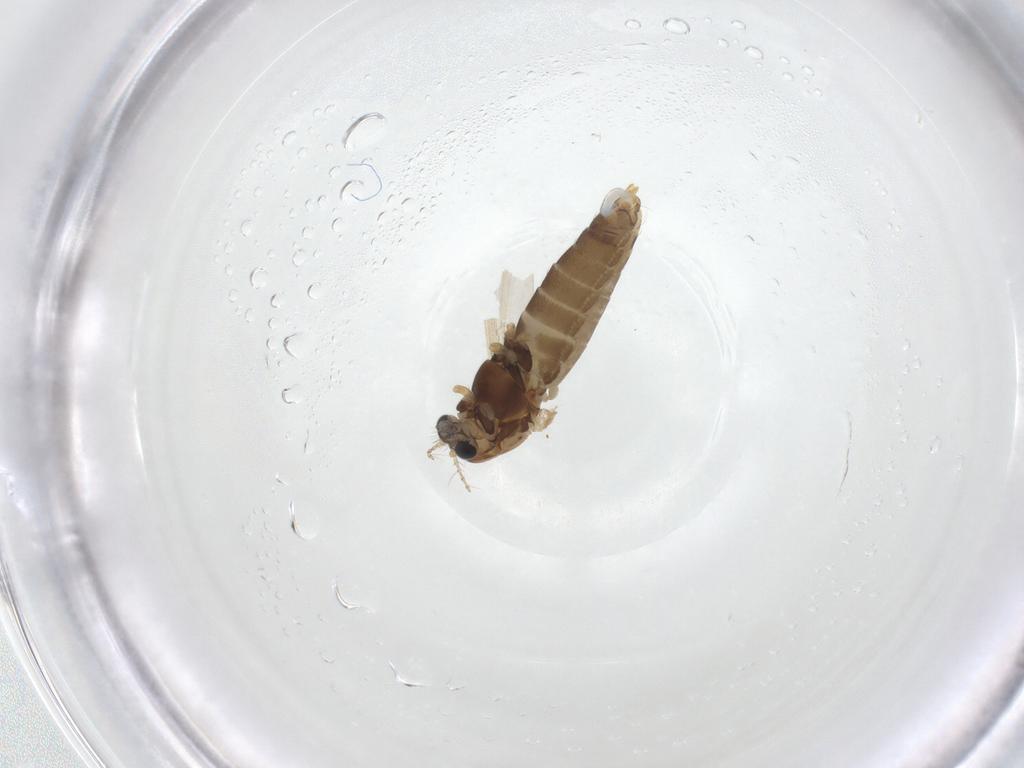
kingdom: Animalia
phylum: Arthropoda
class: Insecta
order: Diptera
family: Chironomidae
